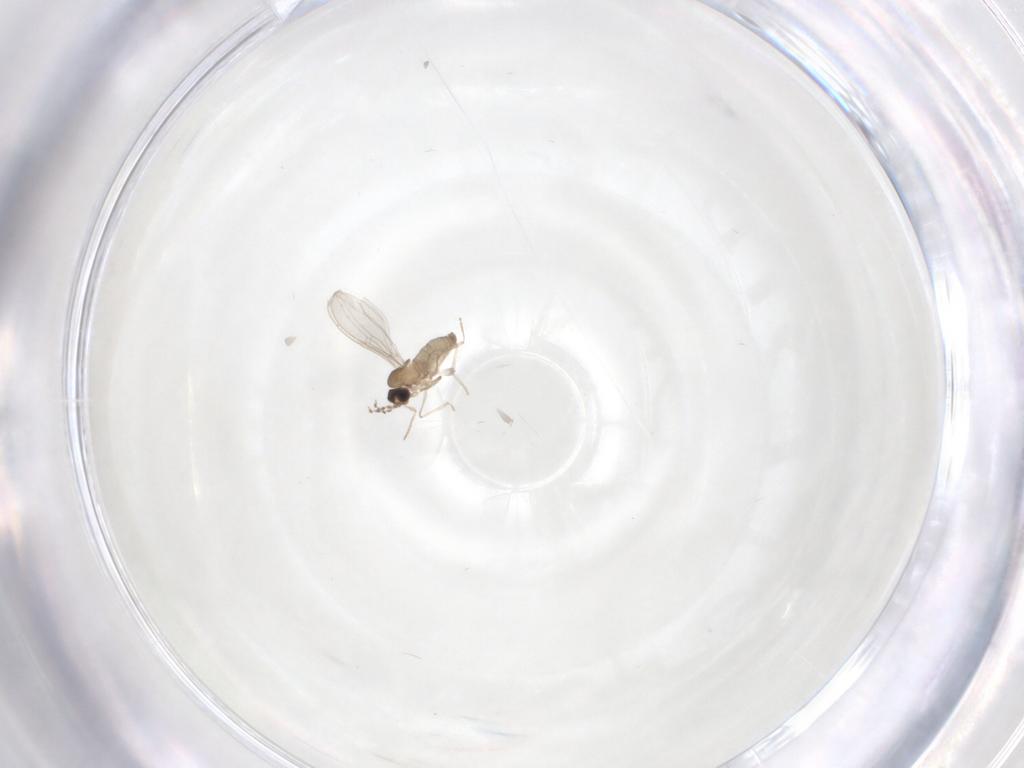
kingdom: Animalia
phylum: Arthropoda
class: Insecta
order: Diptera
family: Cecidomyiidae
